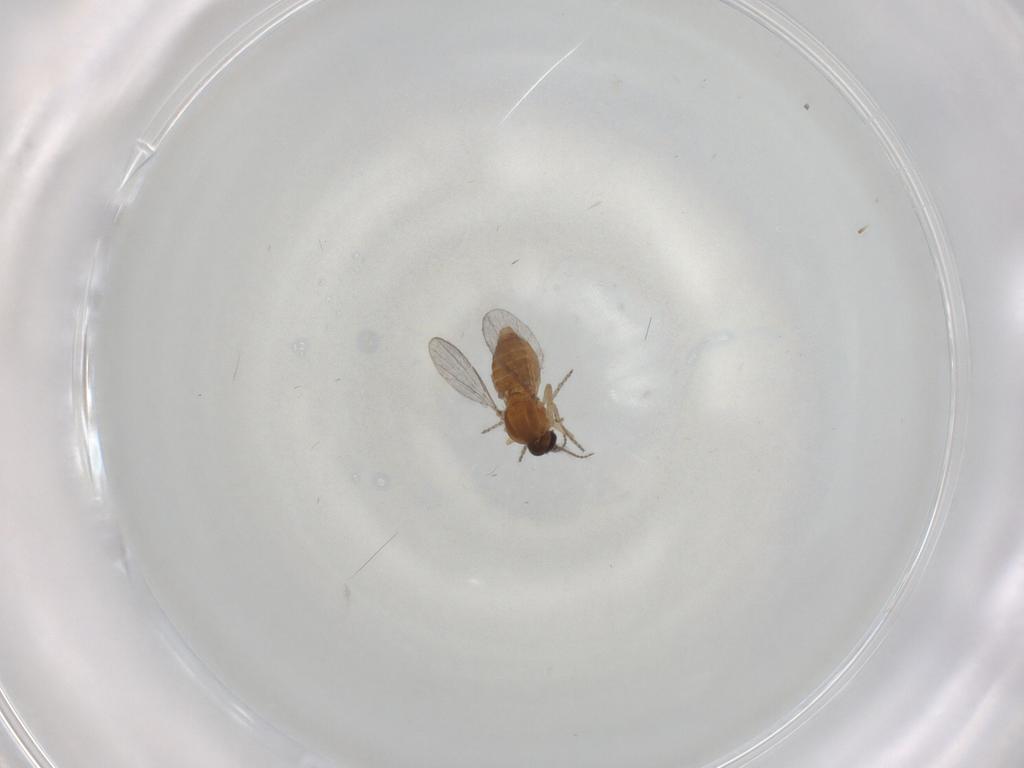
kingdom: Animalia
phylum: Arthropoda
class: Insecta
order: Diptera
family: Ceratopogonidae
